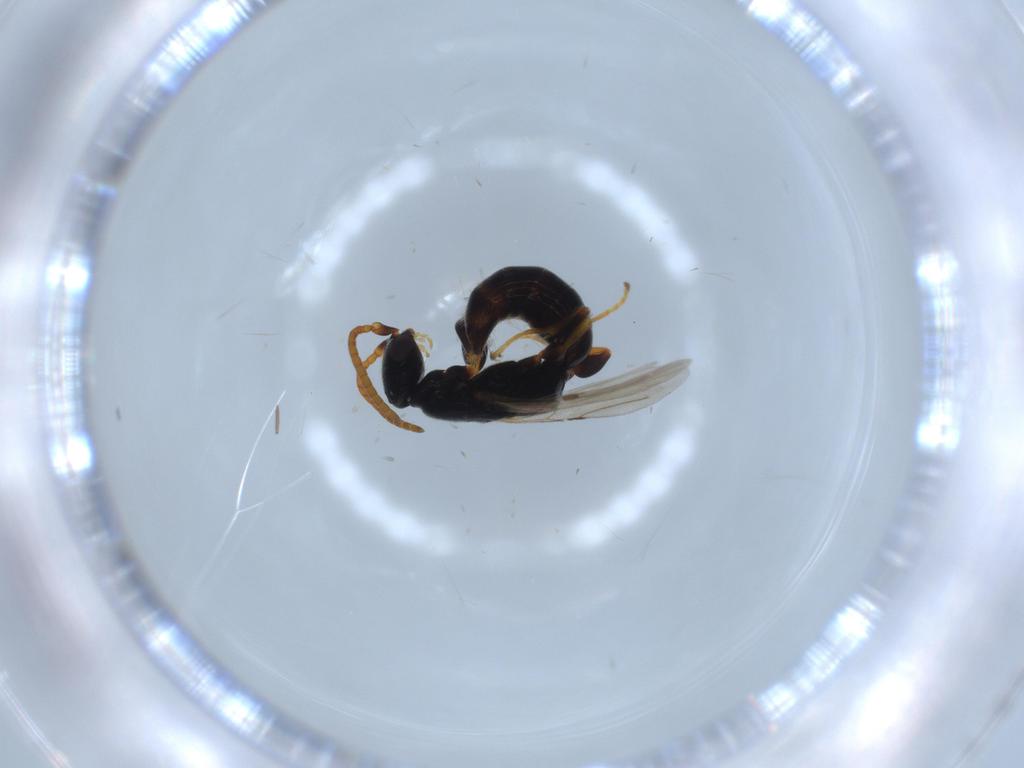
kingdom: Animalia
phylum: Arthropoda
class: Insecta
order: Hymenoptera
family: Bethylidae
